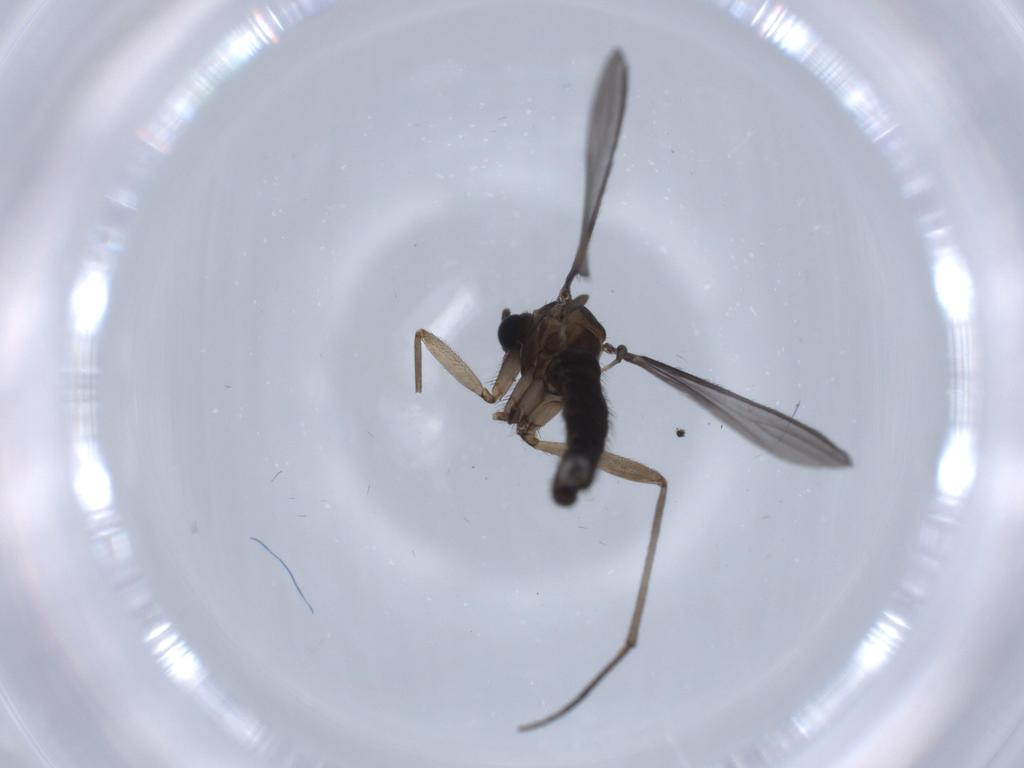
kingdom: Animalia
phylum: Arthropoda
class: Insecta
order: Diptera
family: Sciaridae
